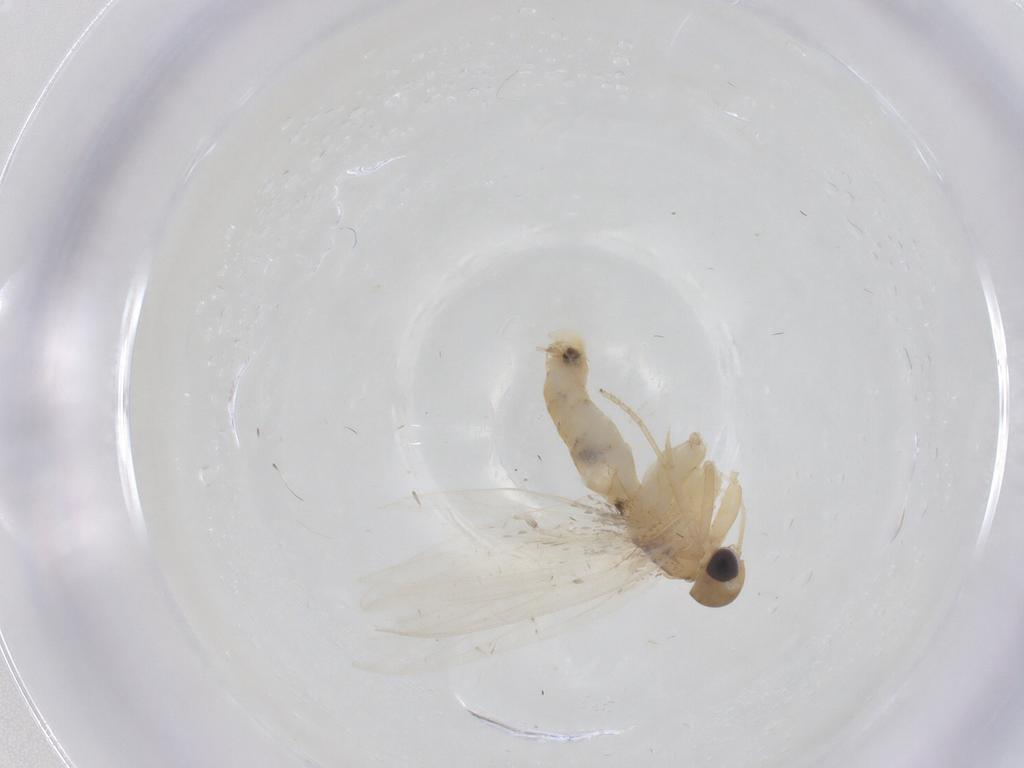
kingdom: Animalia
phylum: Arthropoda
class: Insecta
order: Lepidoptera
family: Oecophoridae
